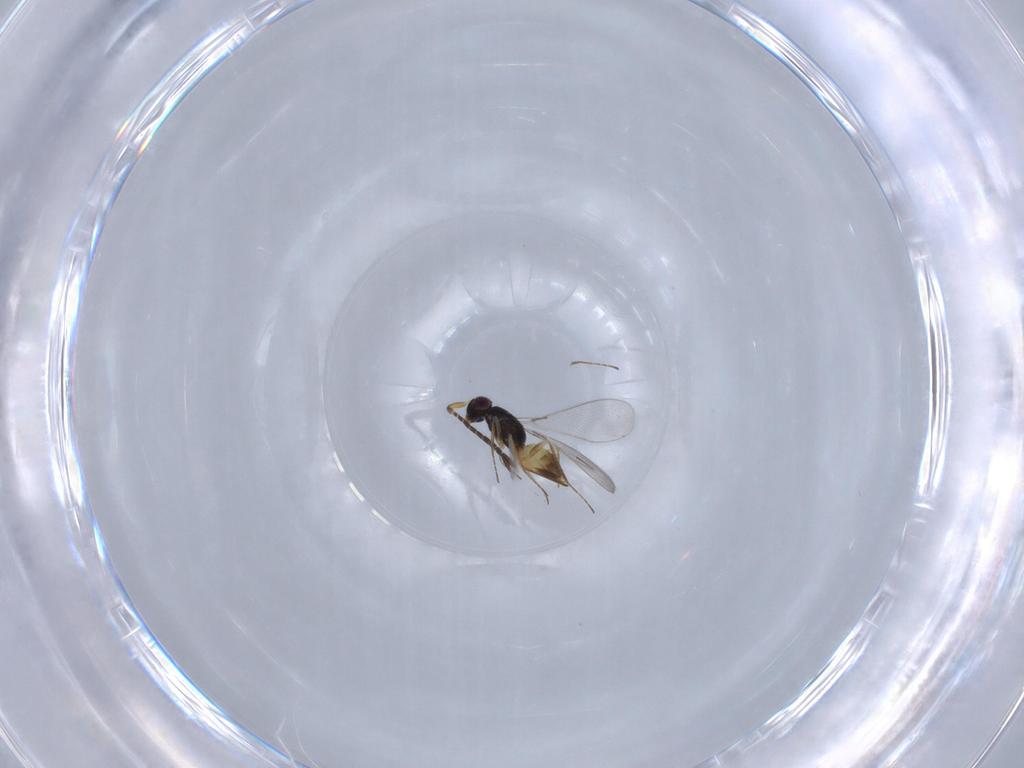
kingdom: Animalia
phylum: Arthropoda
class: Insecta
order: Hymenoptera
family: Mymaridae
